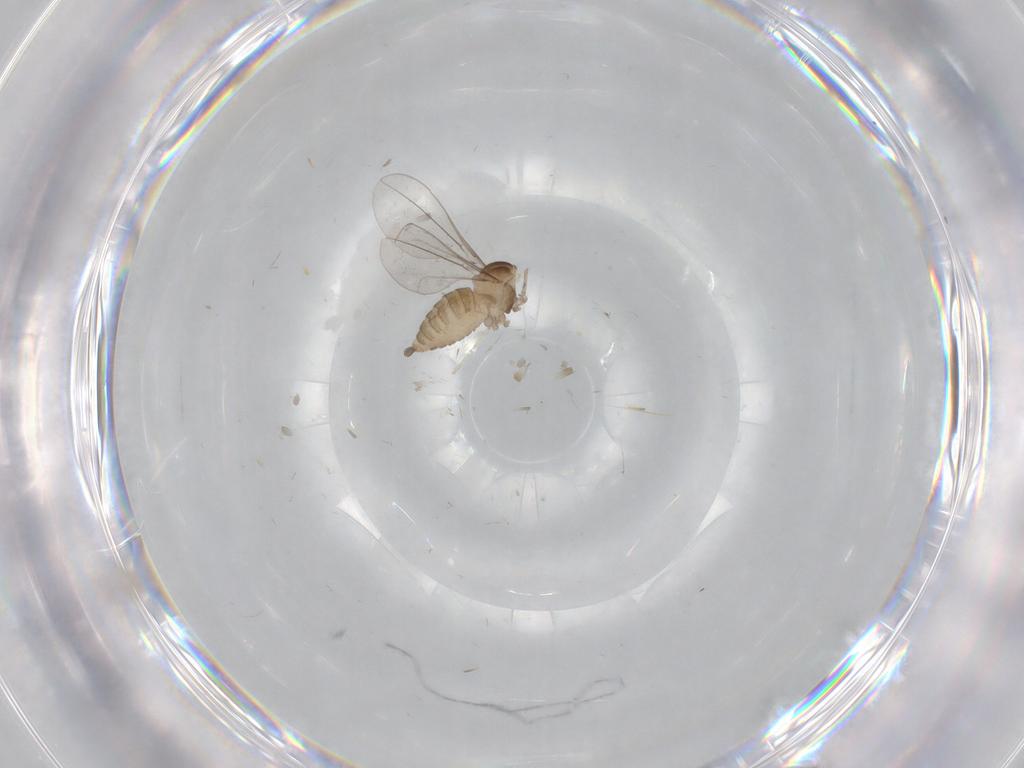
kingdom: Animalia
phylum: Arthropoda
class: Insecta
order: Diptera
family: Cecidomyiidae
